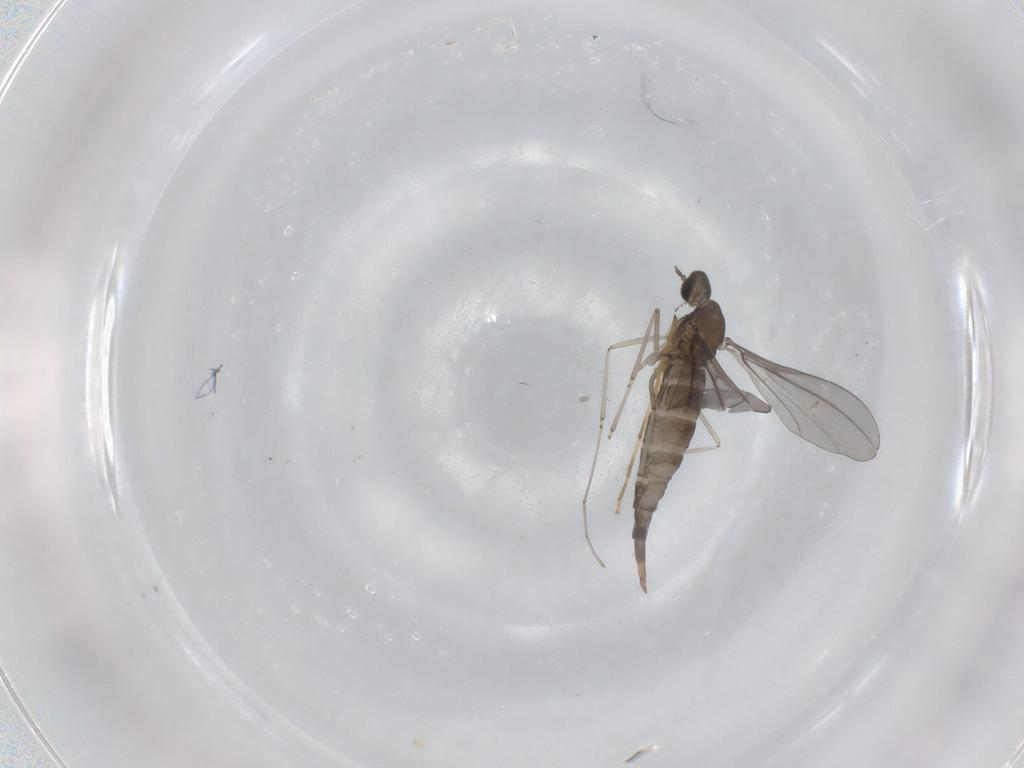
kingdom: Animalia
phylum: Arthropoda
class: Insecta
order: Diptera
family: Cecidomyiidae
